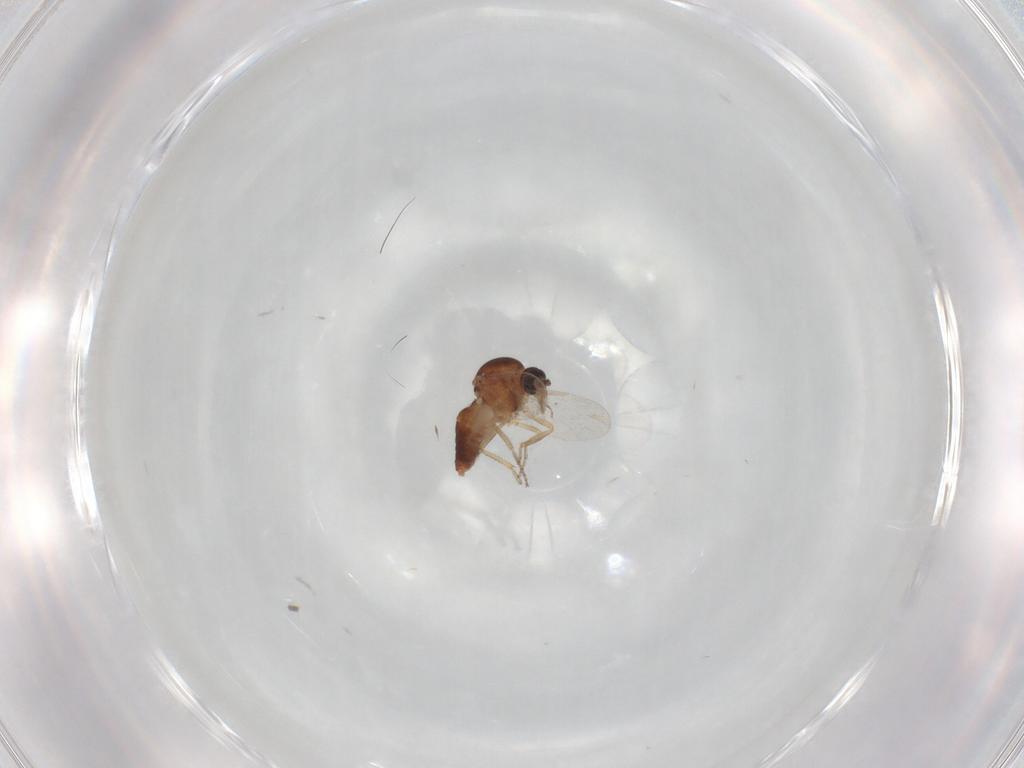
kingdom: Animalia
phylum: Arthropoda
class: Insecta
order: Diptera
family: Ceratopogonidae
